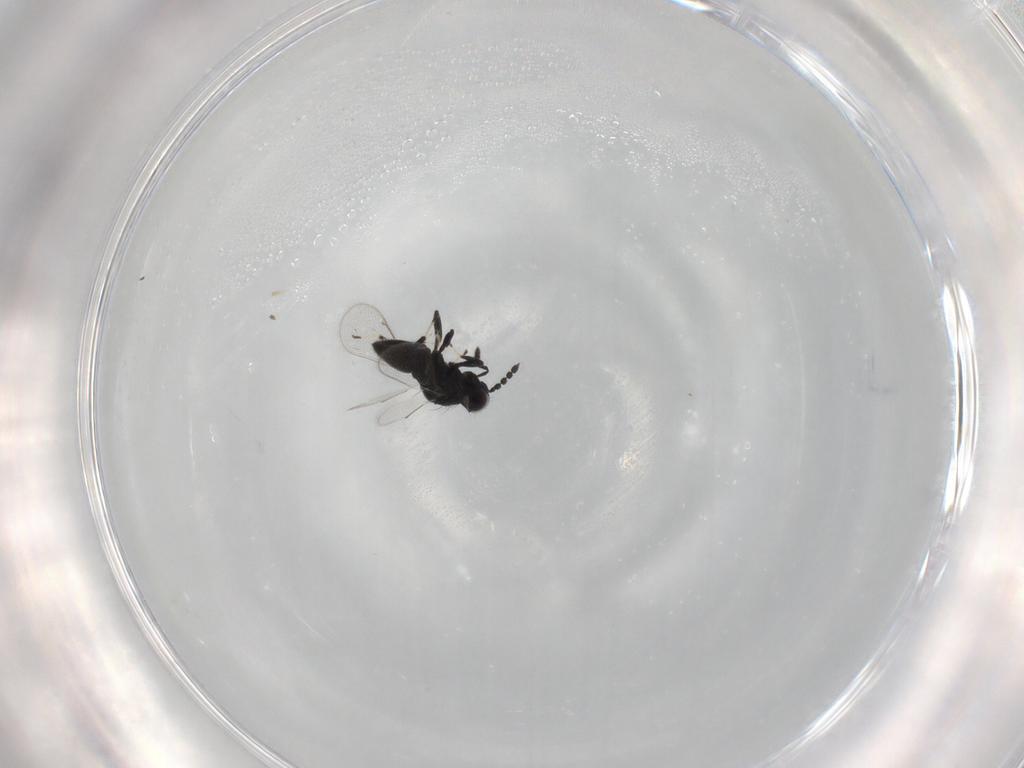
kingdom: Animalia
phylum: Arthropoda
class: Insecta
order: Hymenoptera
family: Eulophidae
